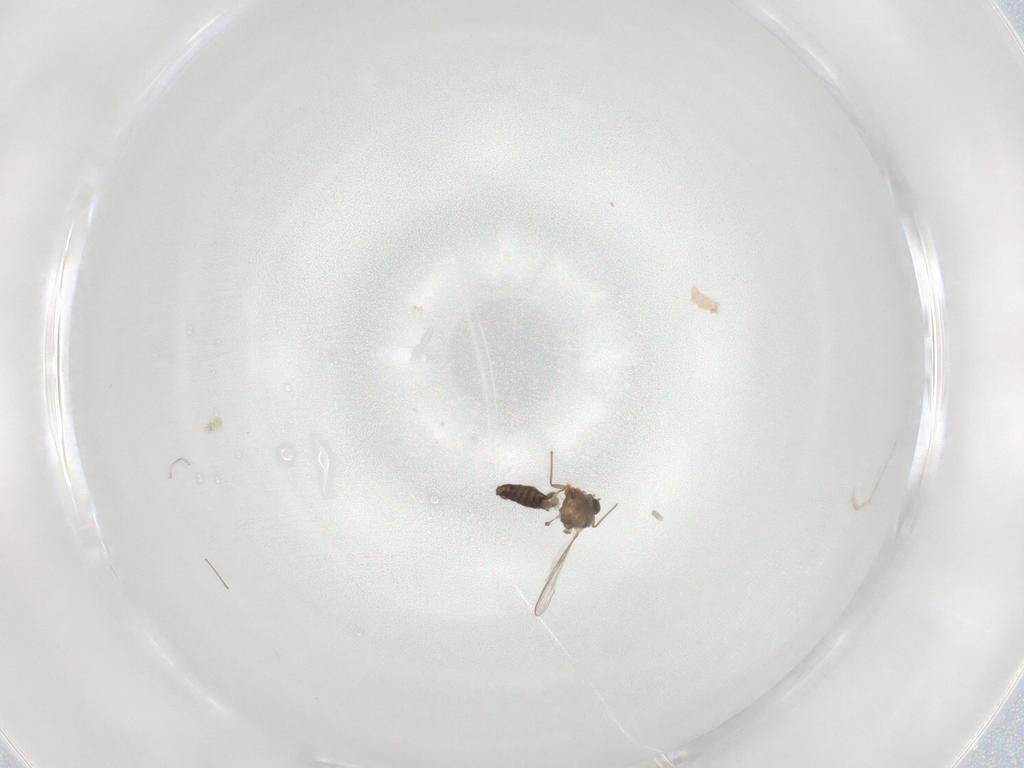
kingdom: Animalia
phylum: Arthropoda
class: Insecta
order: Diptera
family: Chironomidae
